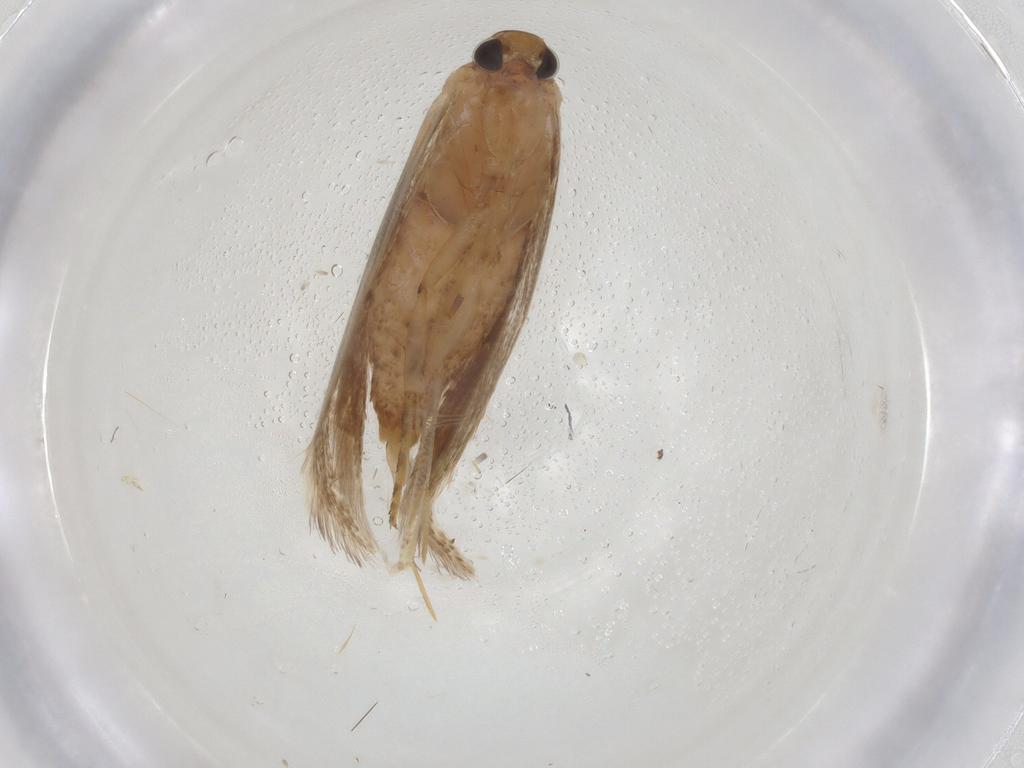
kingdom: Animalia
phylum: Arthropoda
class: Insecta
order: Lepidoptera
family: Gelechiidae
